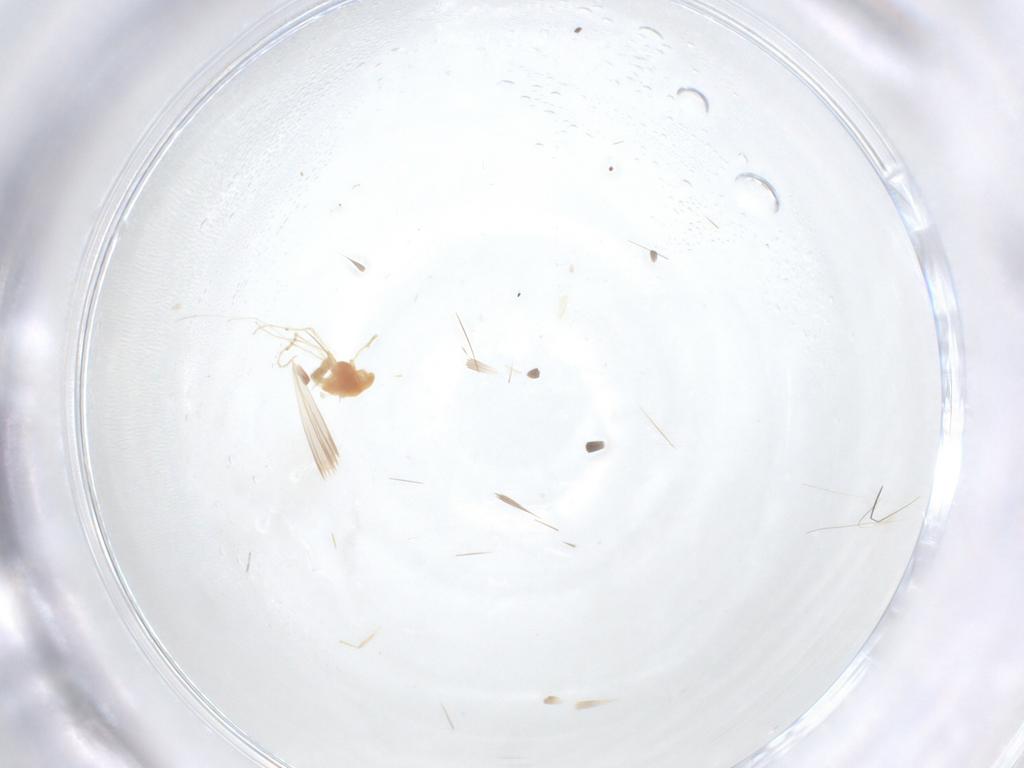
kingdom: Animalia
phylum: Arthropoda
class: Insecta
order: Diptera
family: Chironomidae
